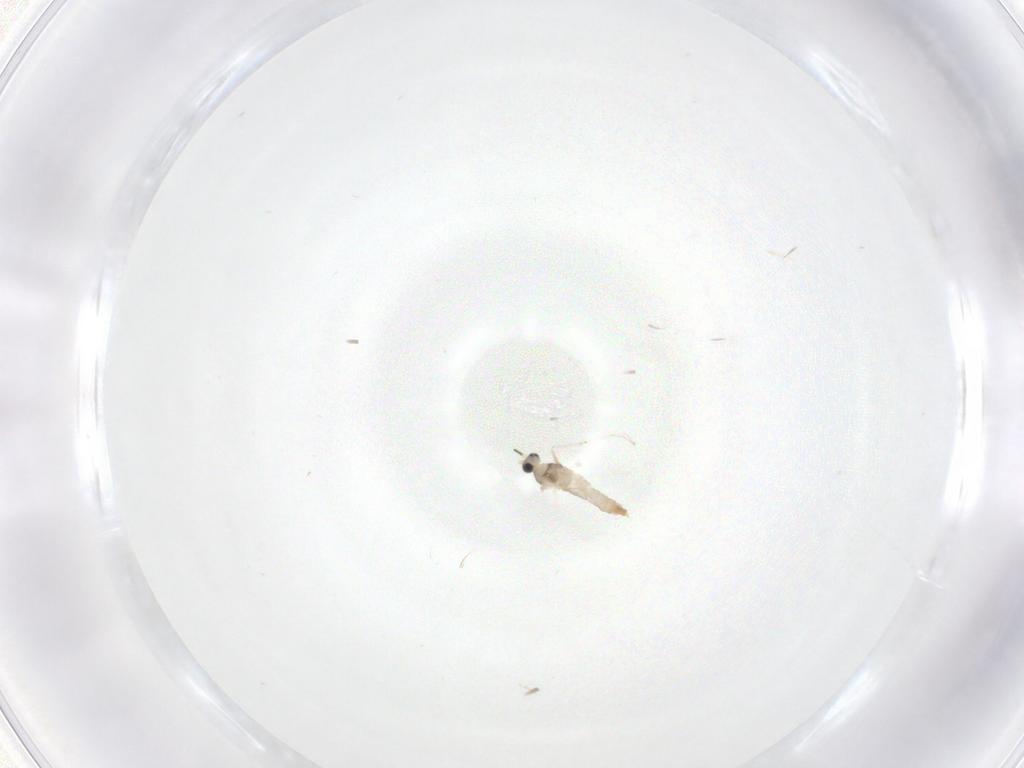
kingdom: Animalia
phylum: Arthropoda
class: Insecta
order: Diptera
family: Cecidomyiidae
